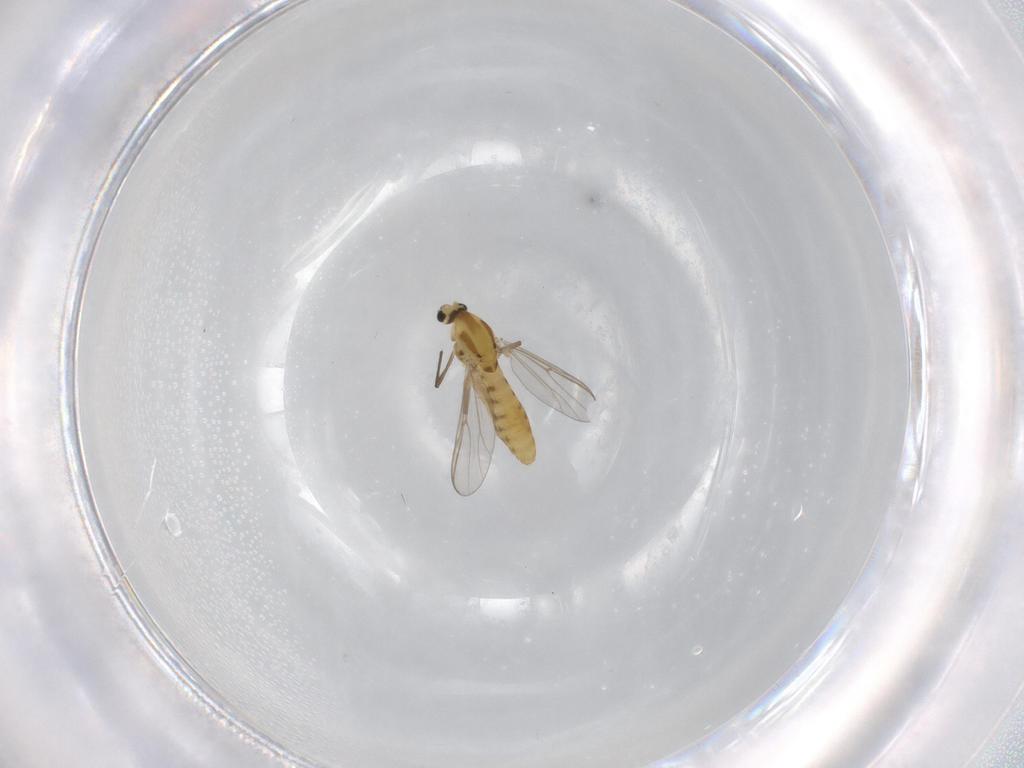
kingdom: Animalia
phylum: Arthropoda
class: Insecta
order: Diptera
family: Chironomidae
